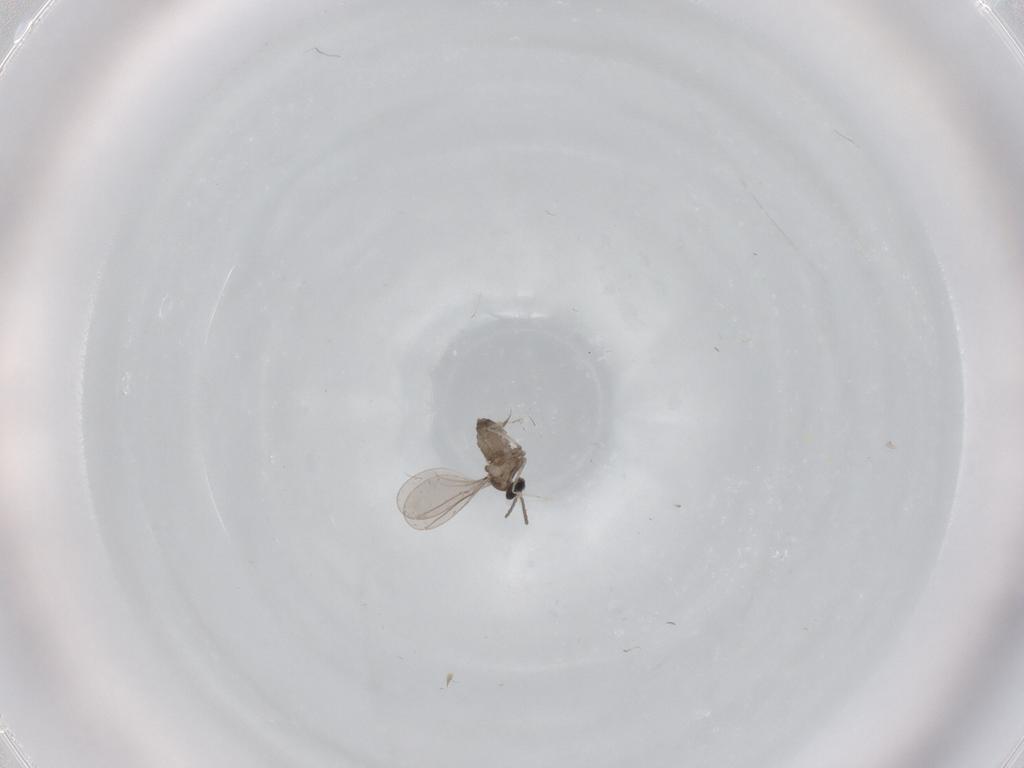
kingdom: Animalia
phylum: Arthropoda
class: Insecta
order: Diptera
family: Cecidomyiidae
